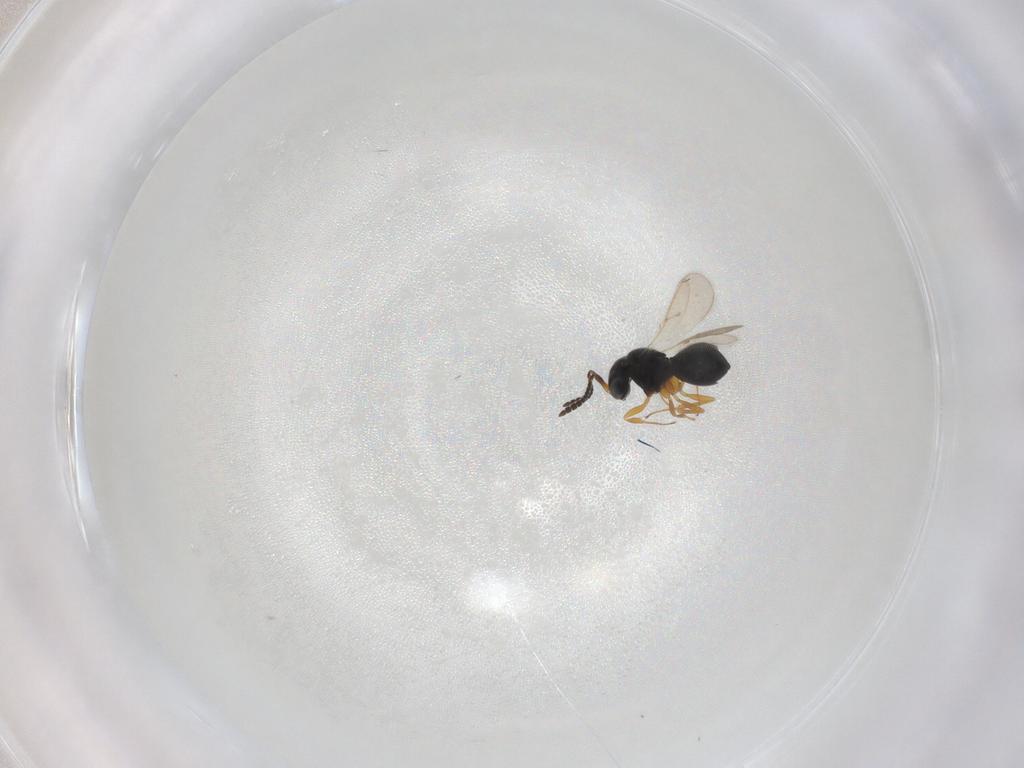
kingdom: Animalia
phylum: Arthropoda
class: Insecta
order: Hymenoptera
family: Scelionidae
